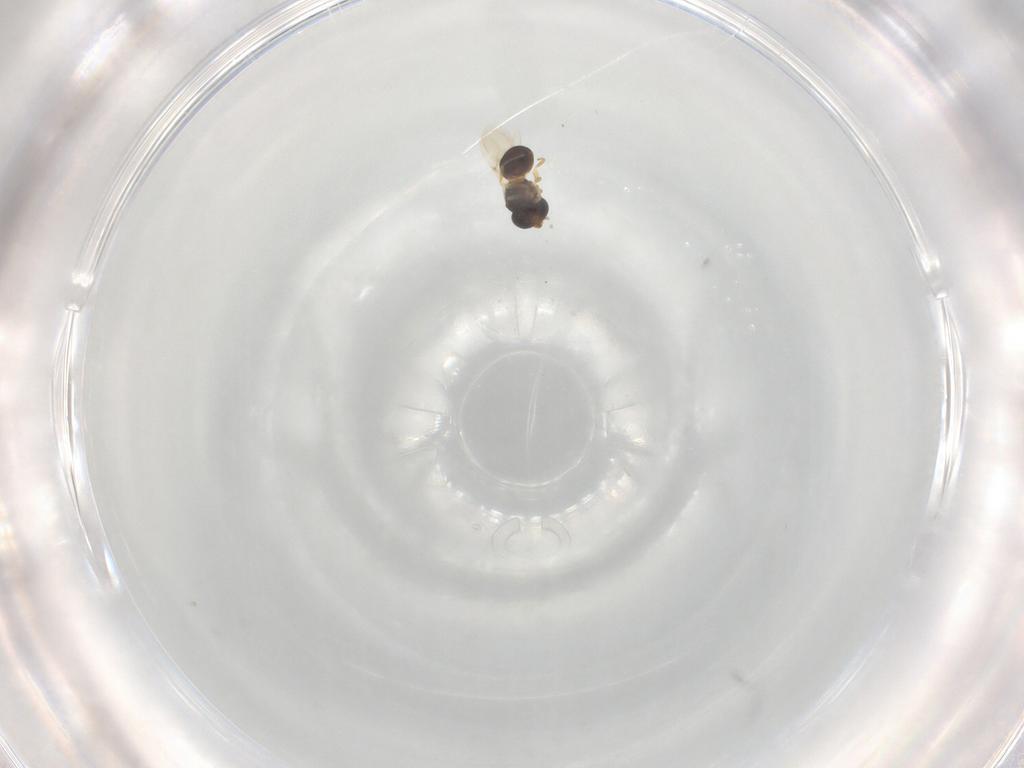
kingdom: Animalia
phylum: Arthropoda
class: Insecta
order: Hymenoptera
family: Scelionidae
